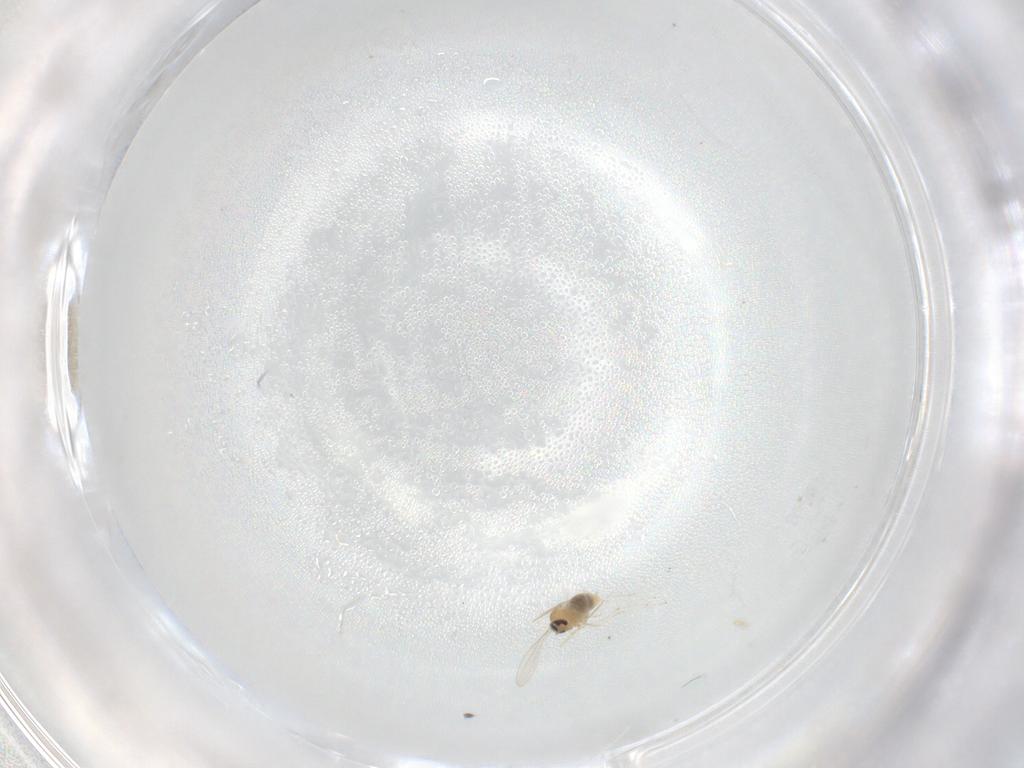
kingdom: Animalia
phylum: Arthropoda
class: Insecta
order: Diptera
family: Cecidomyiidae
